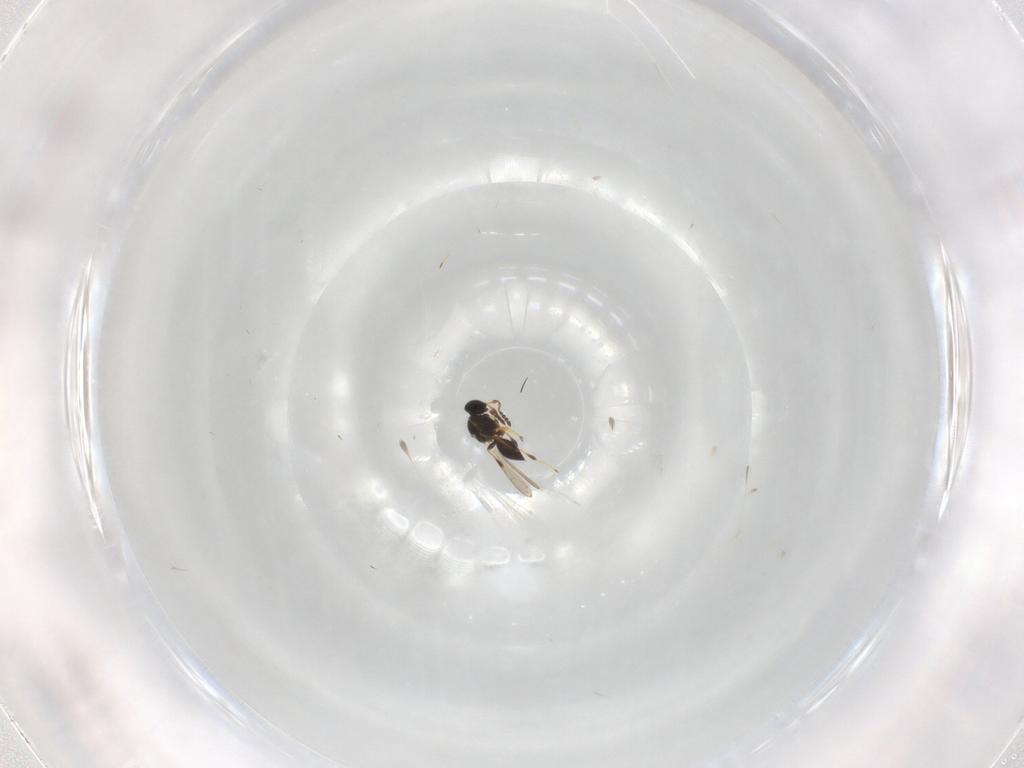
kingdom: Animalia
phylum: Arthropoda
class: Insecta
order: Hymenoptera
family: Platygastridae
